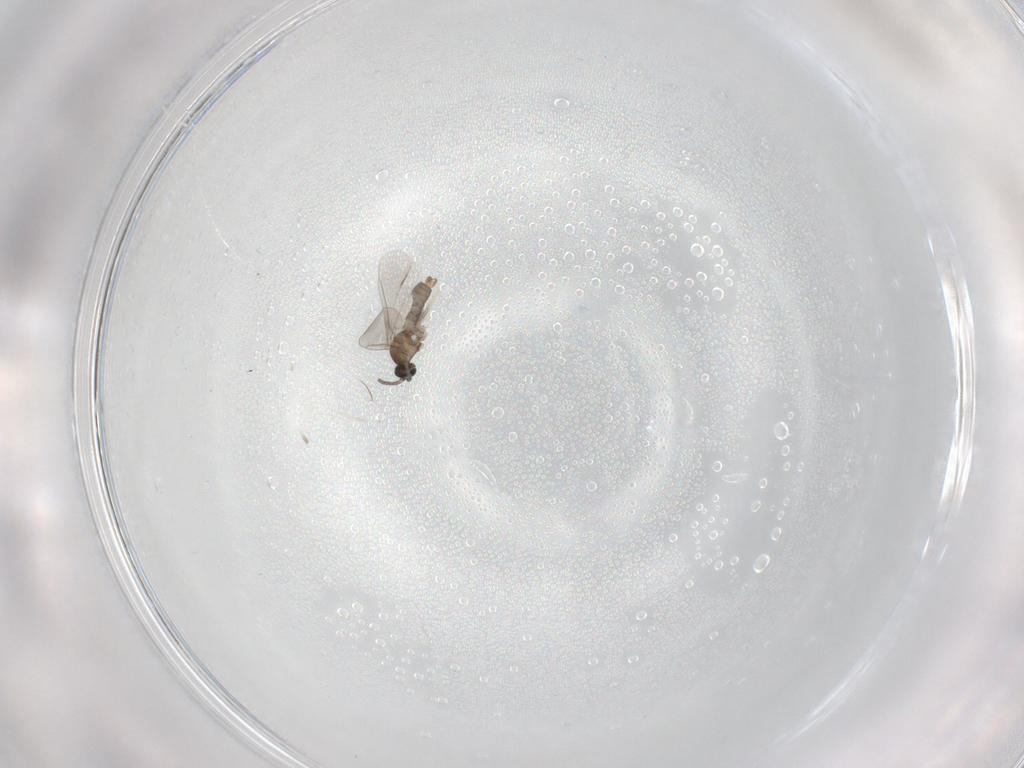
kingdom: Animalia
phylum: Arthropoda
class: Insecta
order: Diptera
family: Cecidomyiidae
